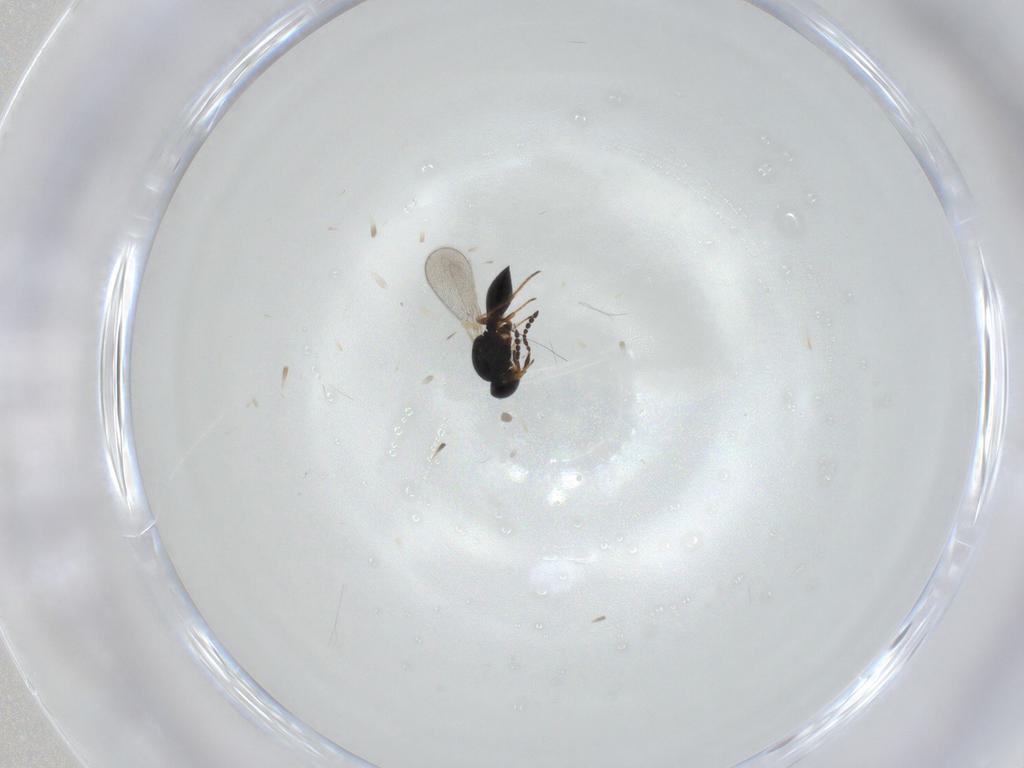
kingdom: Animalia
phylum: Arthropoda
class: Insecta
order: Hymenoptera
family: Platygastridae
